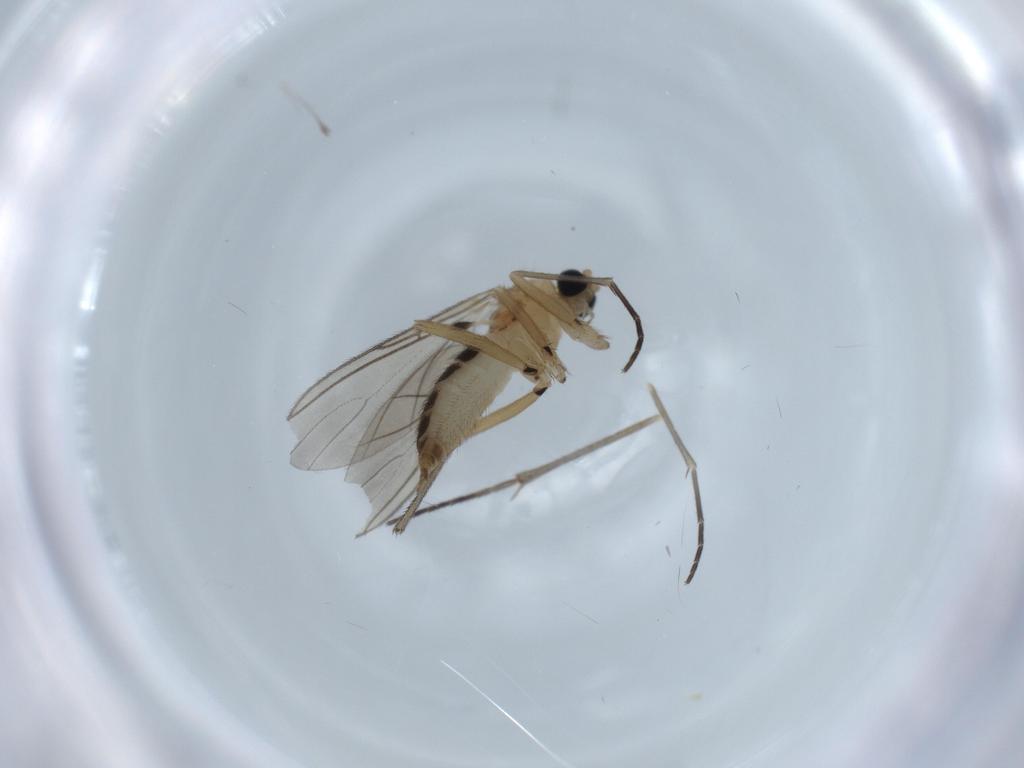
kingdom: Animalia
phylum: Arthropoda
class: Insecta
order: Diptera
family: Sciaridae
